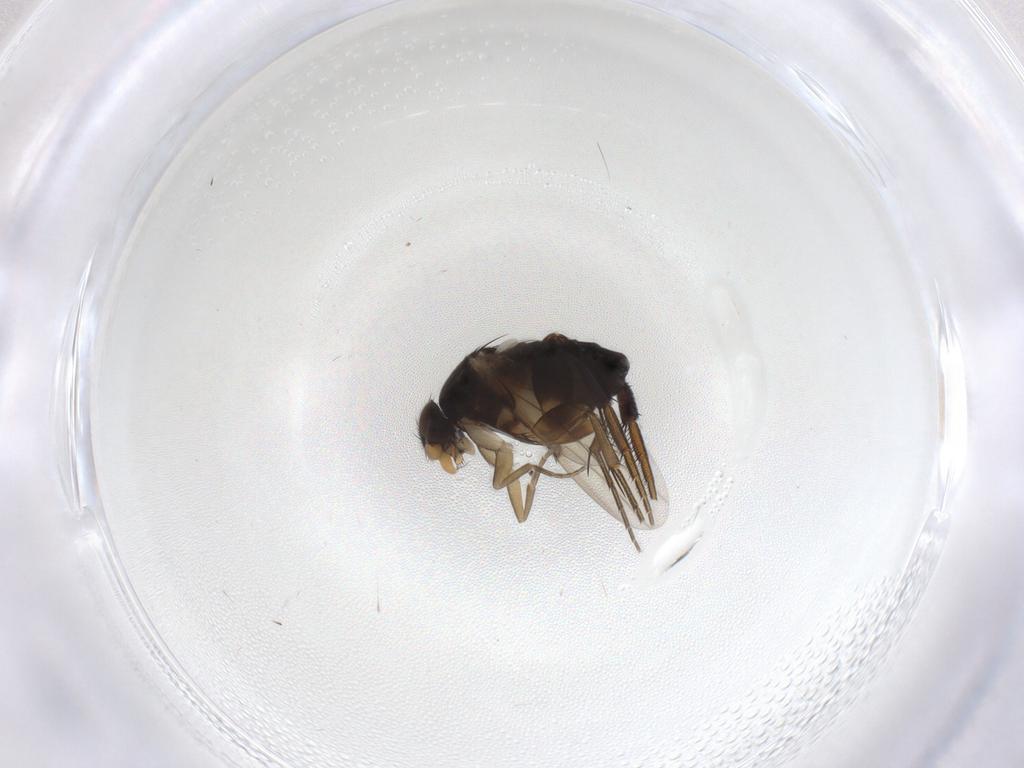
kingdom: Animalia
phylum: Arthropoda
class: Insecta
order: Diptera
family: Phoridae
